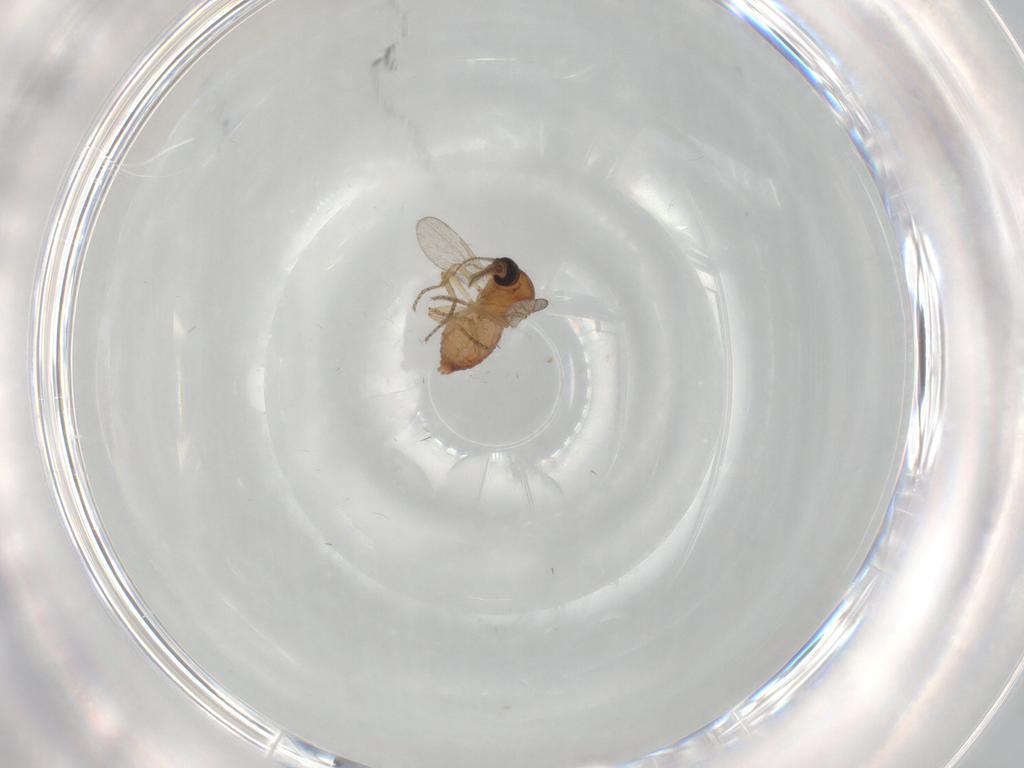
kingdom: Animalia
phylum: Arthropoda
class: Insecta
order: Diptera
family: Ceratopogonidae
